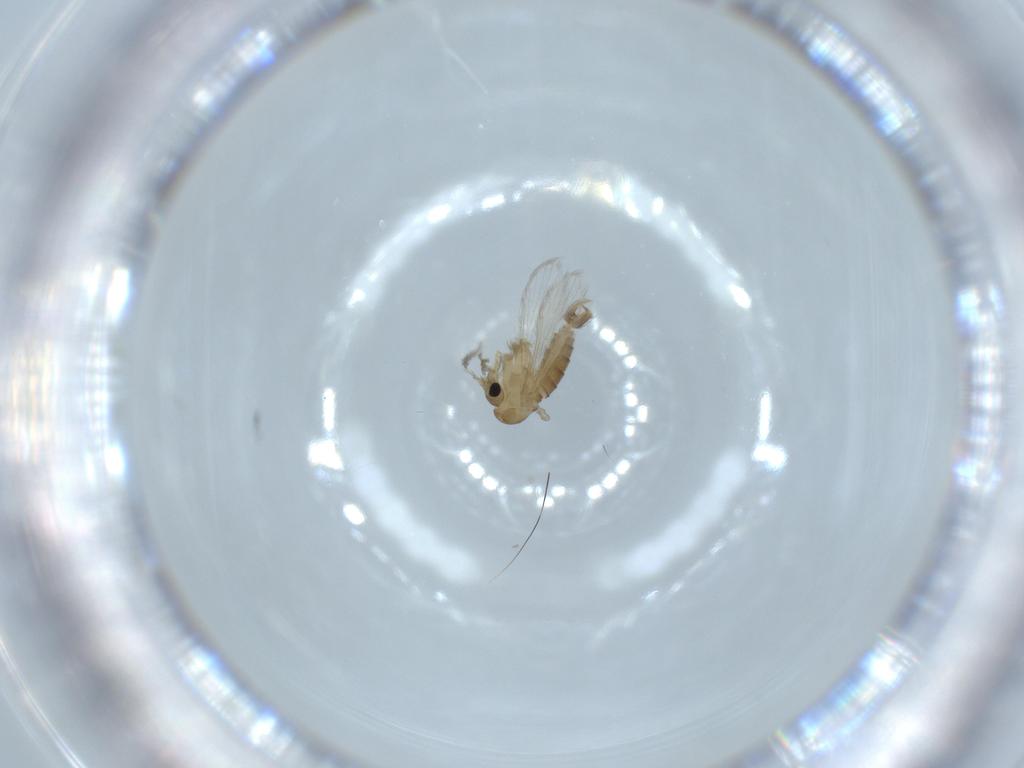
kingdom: Animalia
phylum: Arthropoda
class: Insecta
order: Diptera
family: Psychodidae
